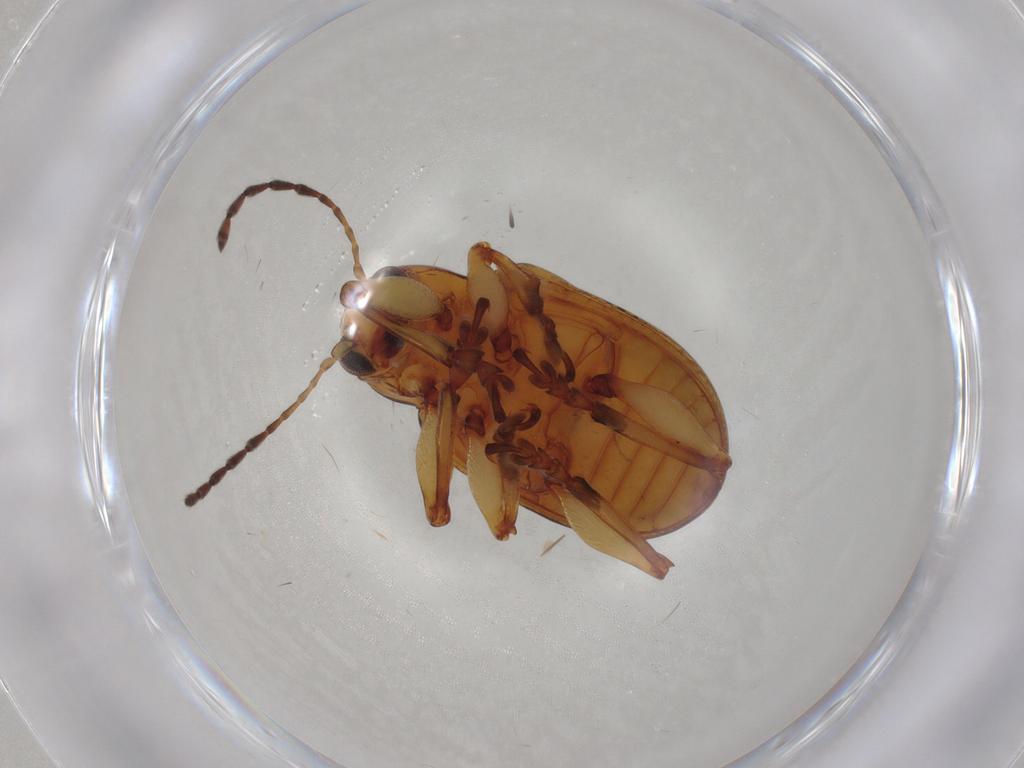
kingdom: Animalia
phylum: Arthropoda
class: Insecta
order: Coleoptera
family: Chrysomelidae
